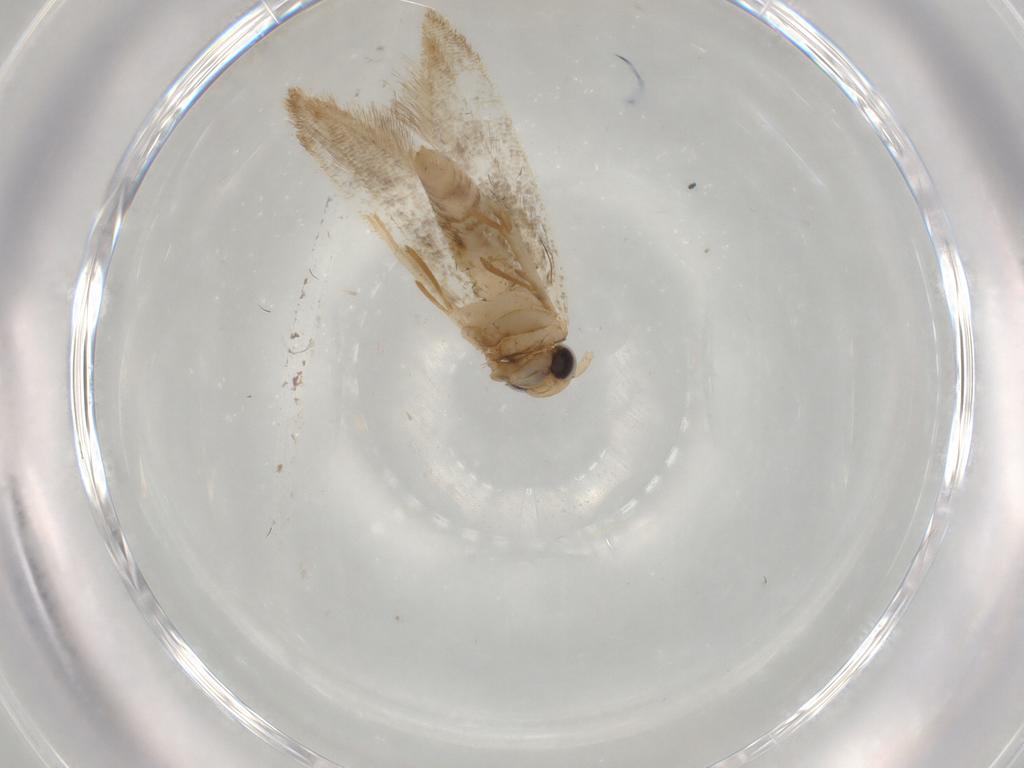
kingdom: Animalia
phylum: Arthropoda
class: Insecta
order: Lepidoptera
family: Cosmopterigidae
